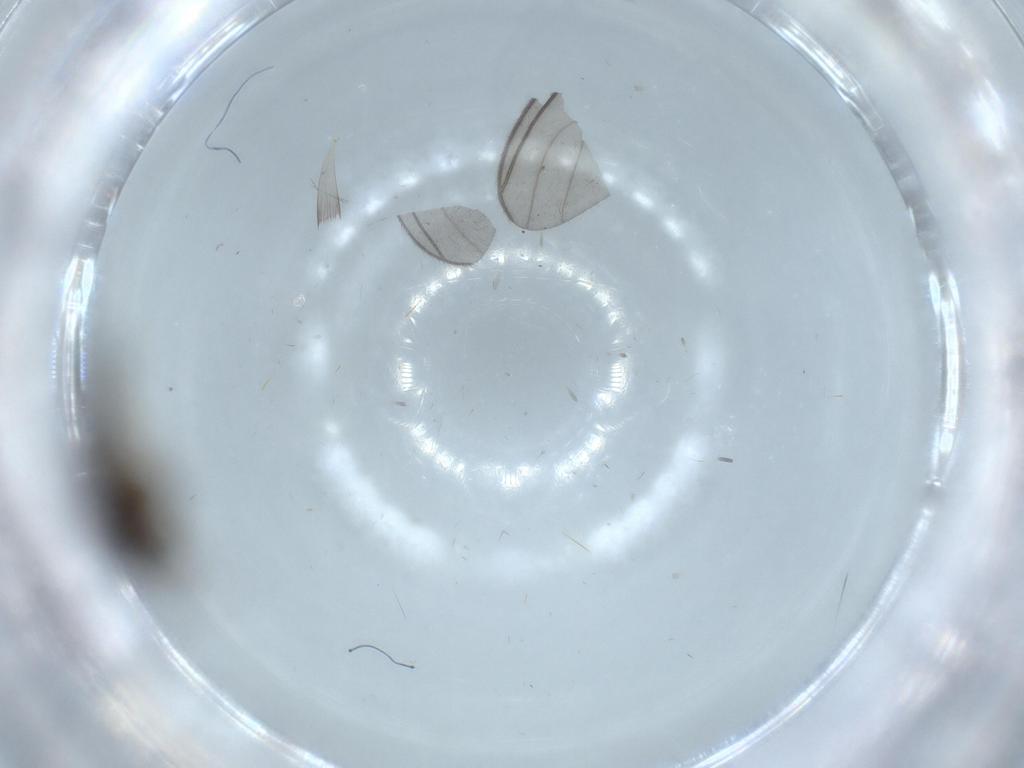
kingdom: Animalia
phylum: Arthropoda
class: Insecta
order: Diptera
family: Chironomidae
